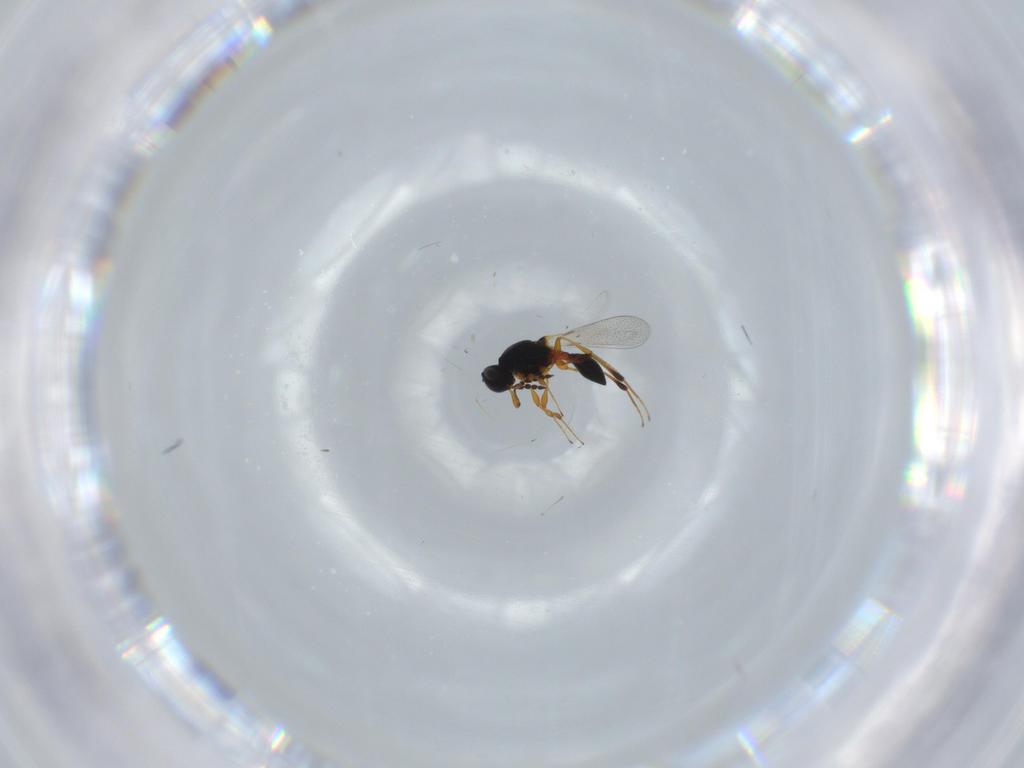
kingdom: Animalia
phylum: Arthropoda
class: Insecta
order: Hymenoptera
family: Platygastridae
